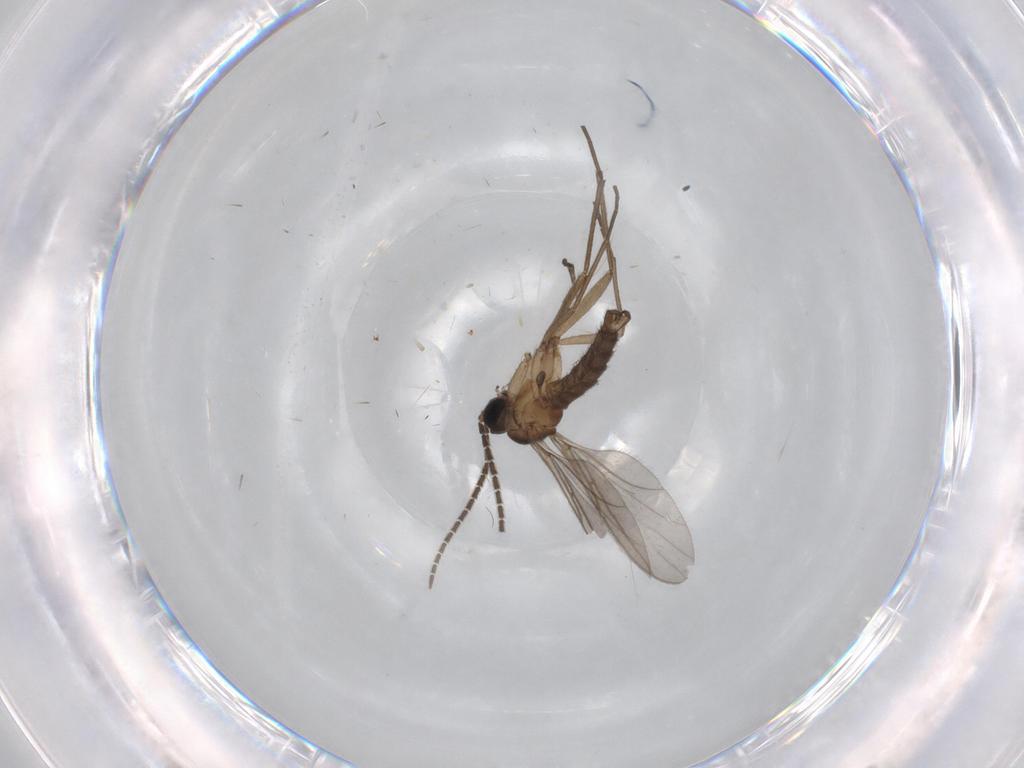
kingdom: Animalia
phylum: Arthropoda
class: Insecta
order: Diptera
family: Sciaridae
